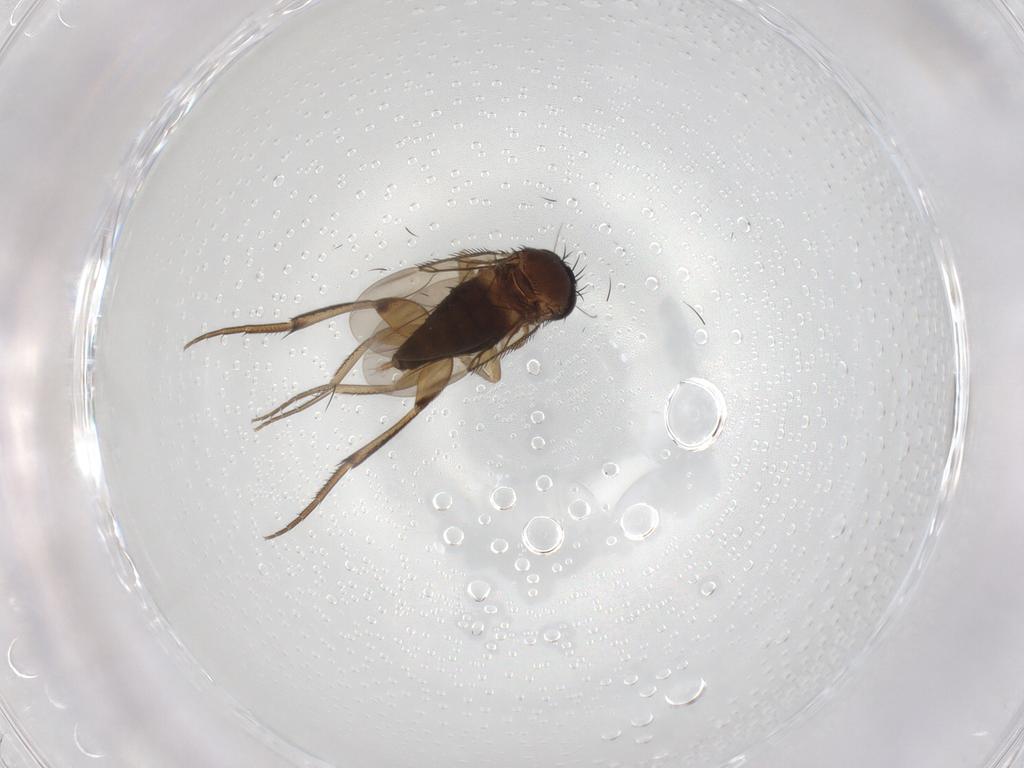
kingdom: Animalia
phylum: Arthropoda
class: Insecta
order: Diptera
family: Phoridae
